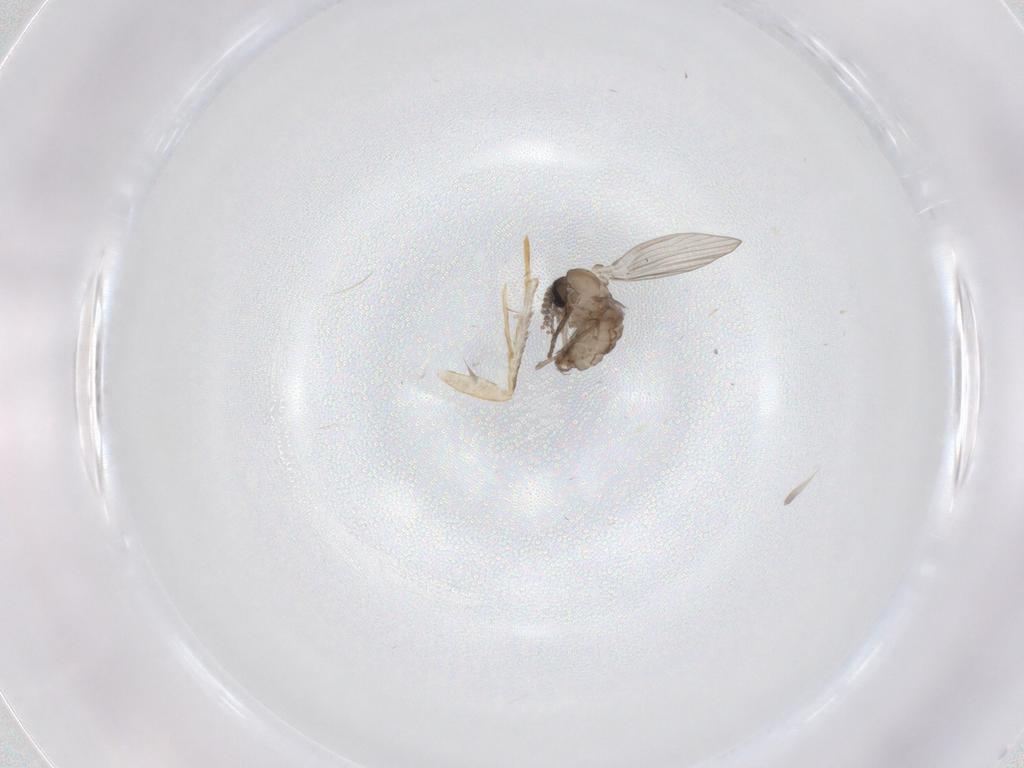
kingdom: Animalia
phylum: Arthropoda
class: Insecta
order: Diptera
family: Psychodidae
